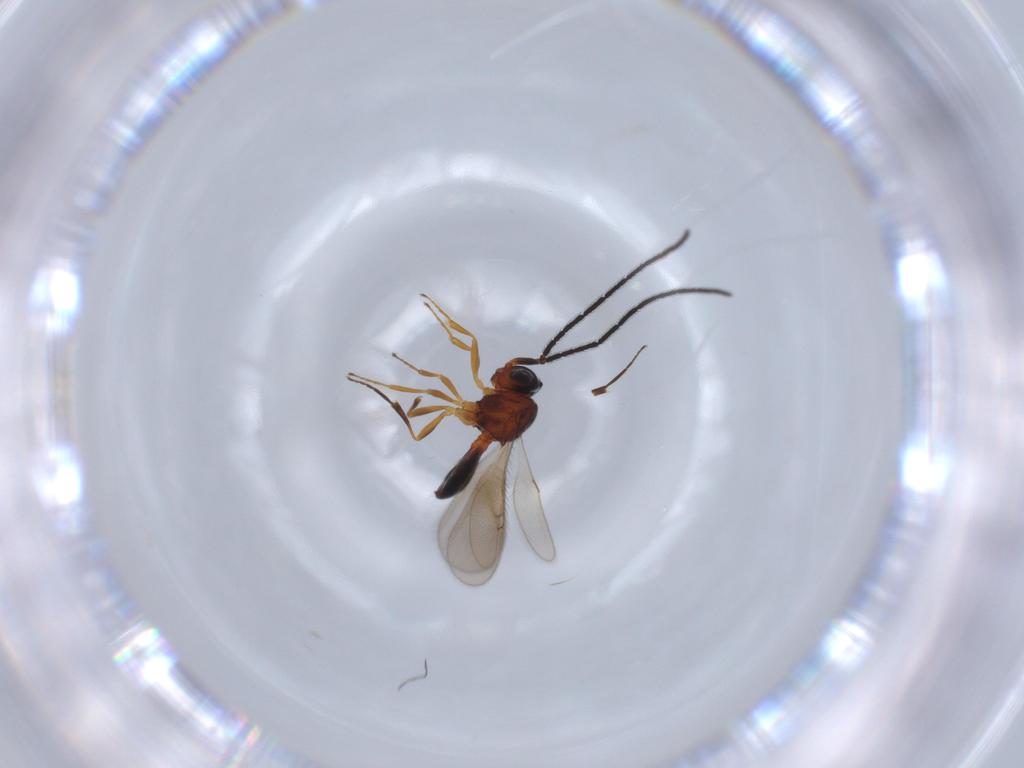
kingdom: Animalia
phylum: Arthropoda
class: Insecta
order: Hymenoptera
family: Scelionidae
